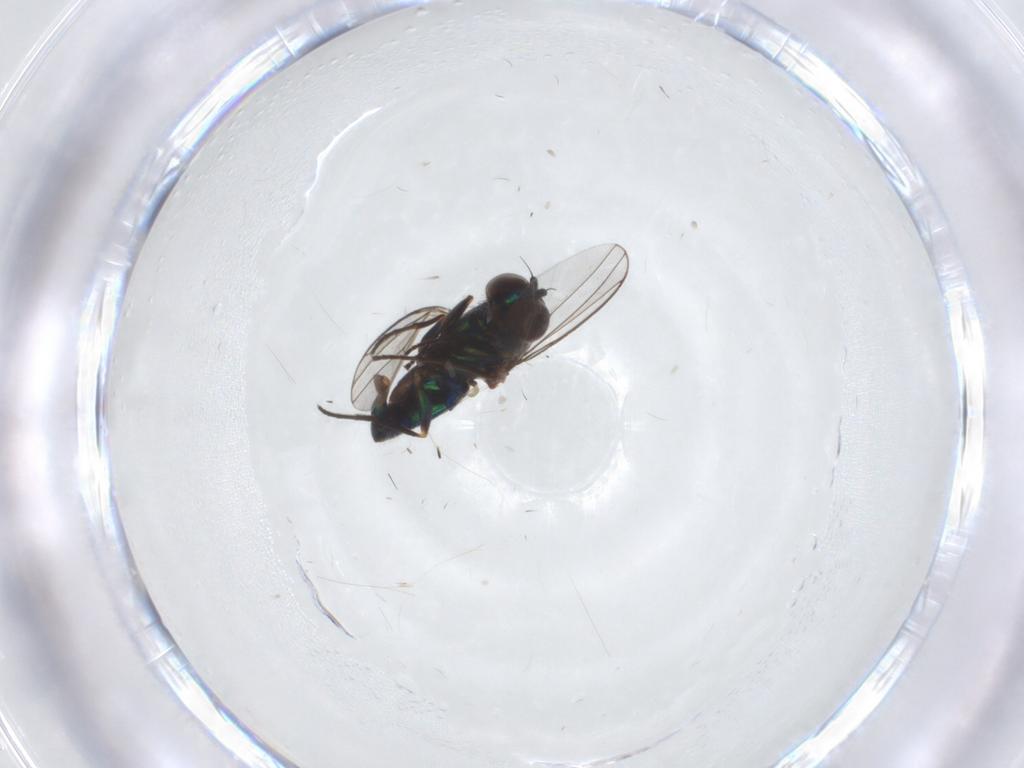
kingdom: Animalia
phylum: Arthropoda
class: Insecta
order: Diptera
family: Dolichopodidae
